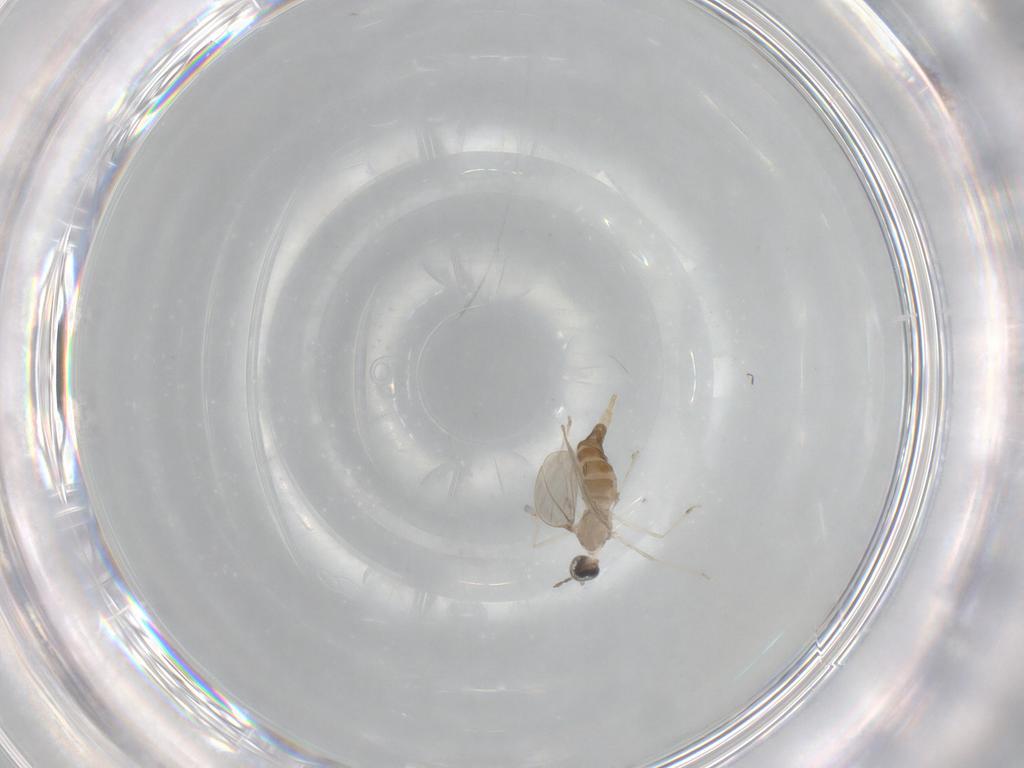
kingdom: Animalia
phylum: Arthropoda
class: Insecta
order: Diptera
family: Cecidomyiidae
